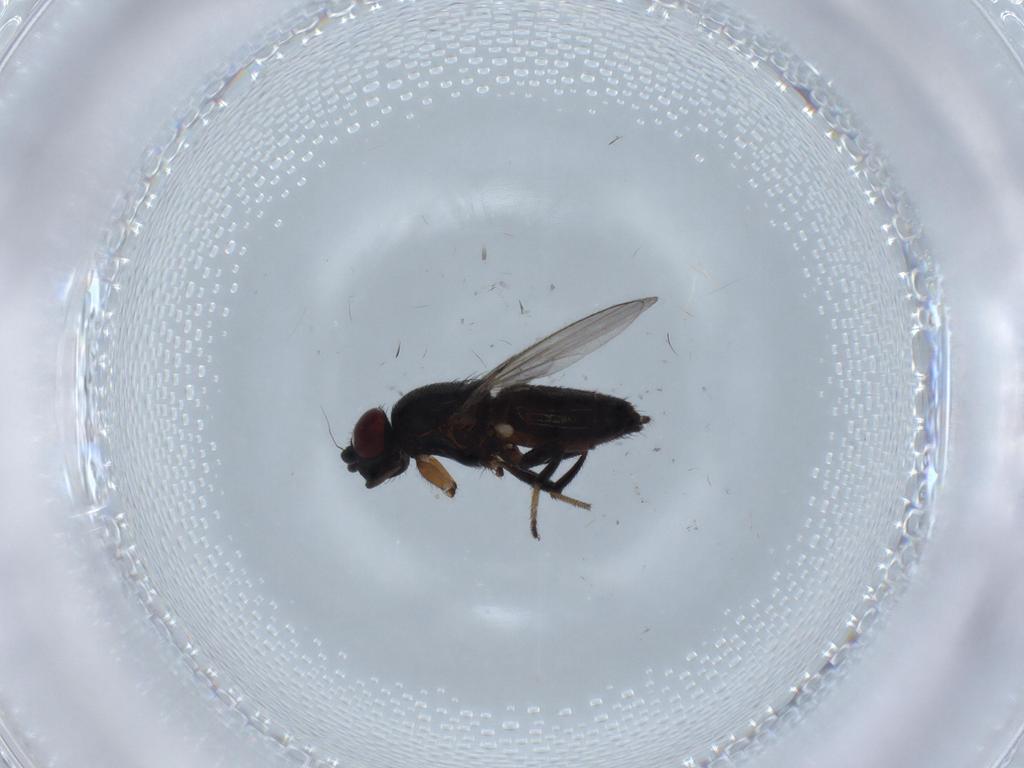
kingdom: Animalia
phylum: Arthropoda
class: Insecta
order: Diptera
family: Milichiidae
